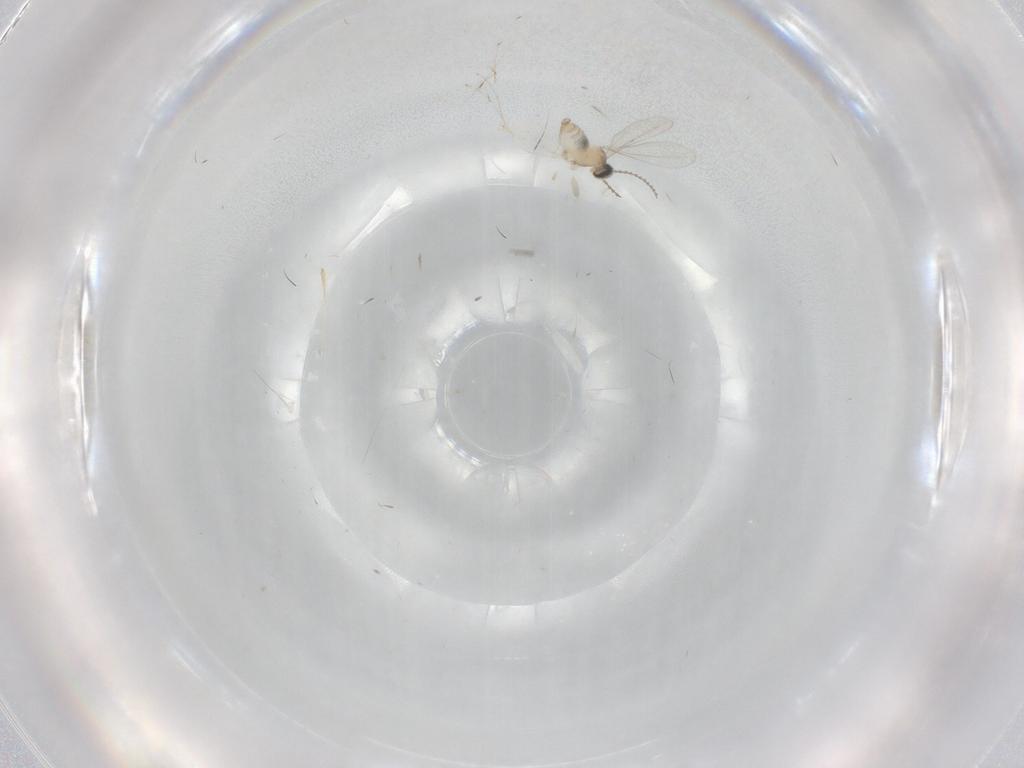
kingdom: Animalia
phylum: Arthropoda
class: Insecta
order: Diptera
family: Cecidomyiidae
